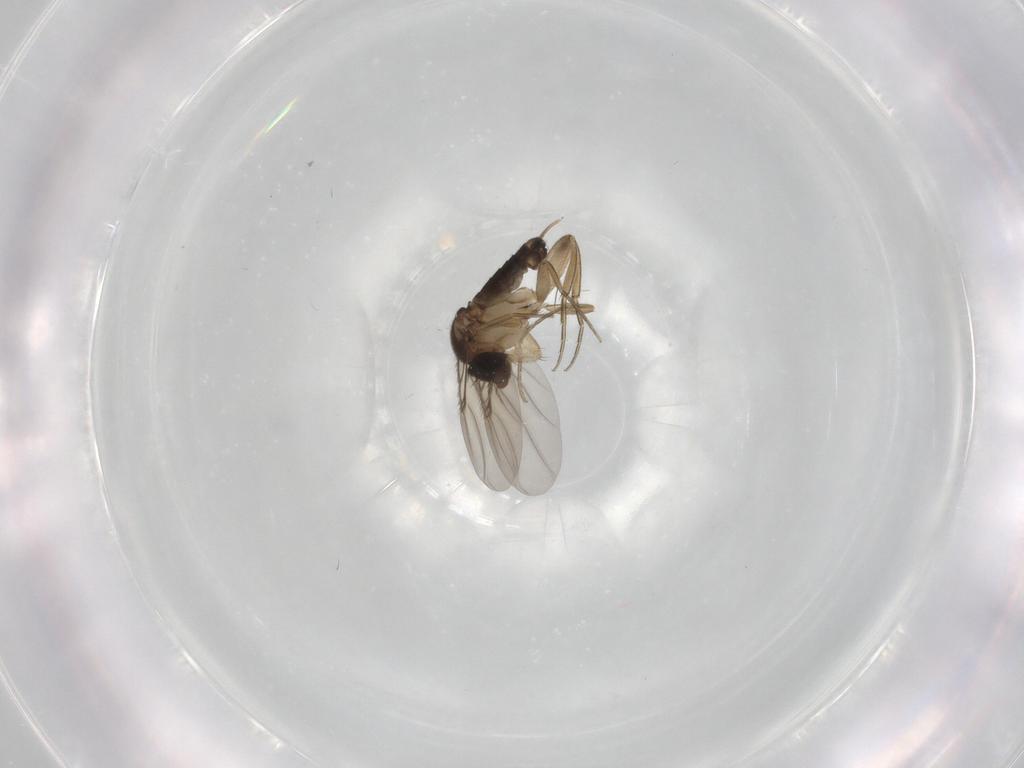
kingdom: Animalia
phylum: Arthropoda
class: Insecta
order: Diptera
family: Phoridae
